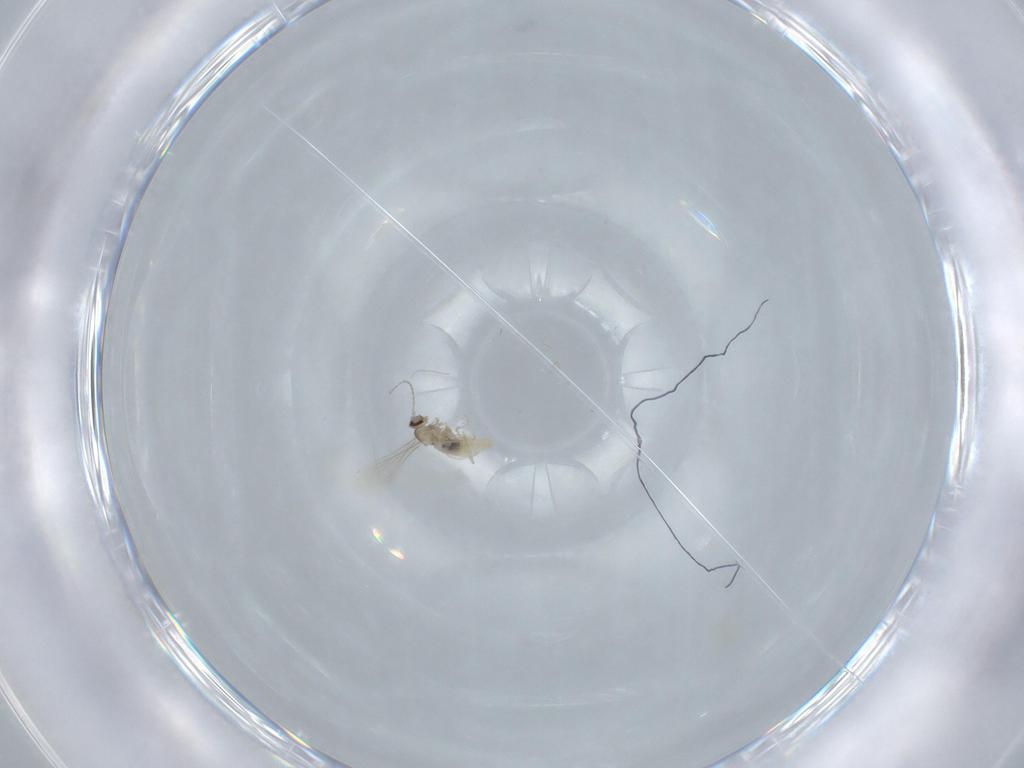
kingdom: Animalia
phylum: Arthropoda
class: Insecta
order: Diptera
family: Cecidomyiidae
